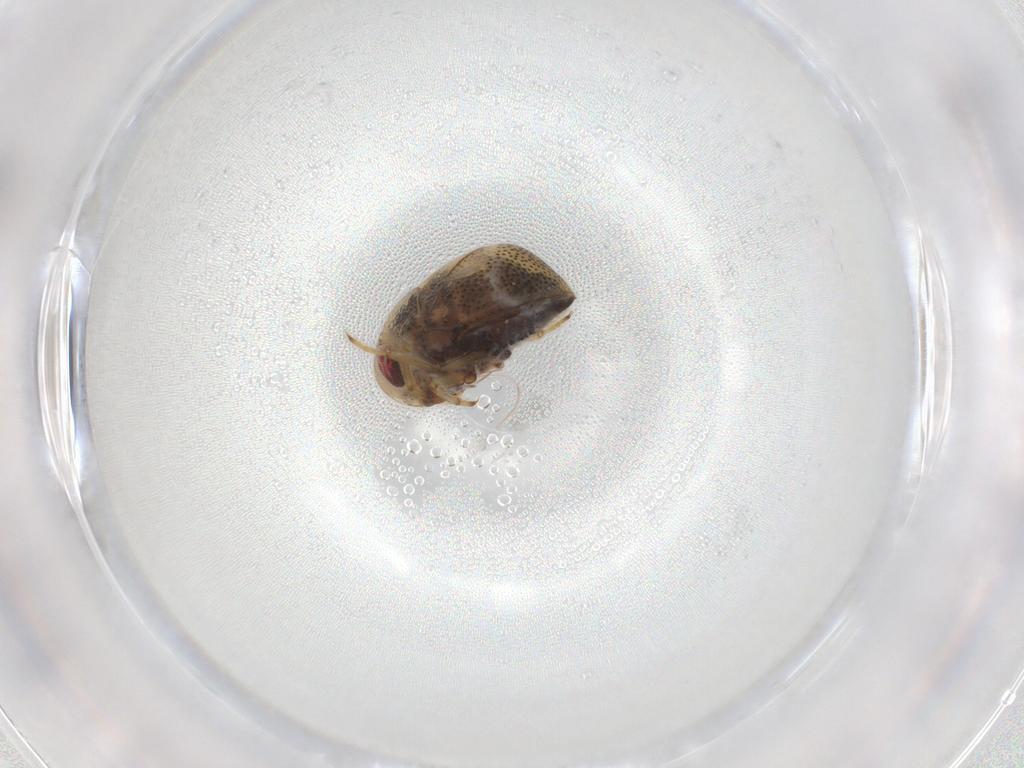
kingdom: Animalia
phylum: Arthropoda
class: Insecta
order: Hemiptera
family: Pleidae
